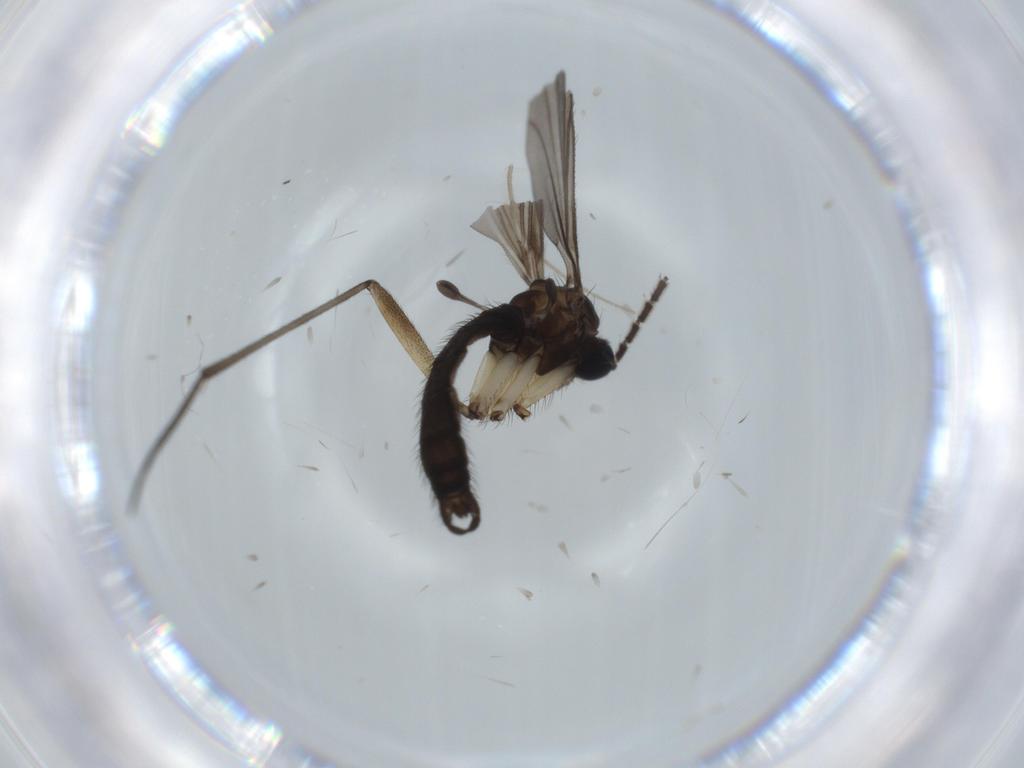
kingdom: Animalia
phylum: Arthropoda
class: Insecta
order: Diptera
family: Sciaridae
